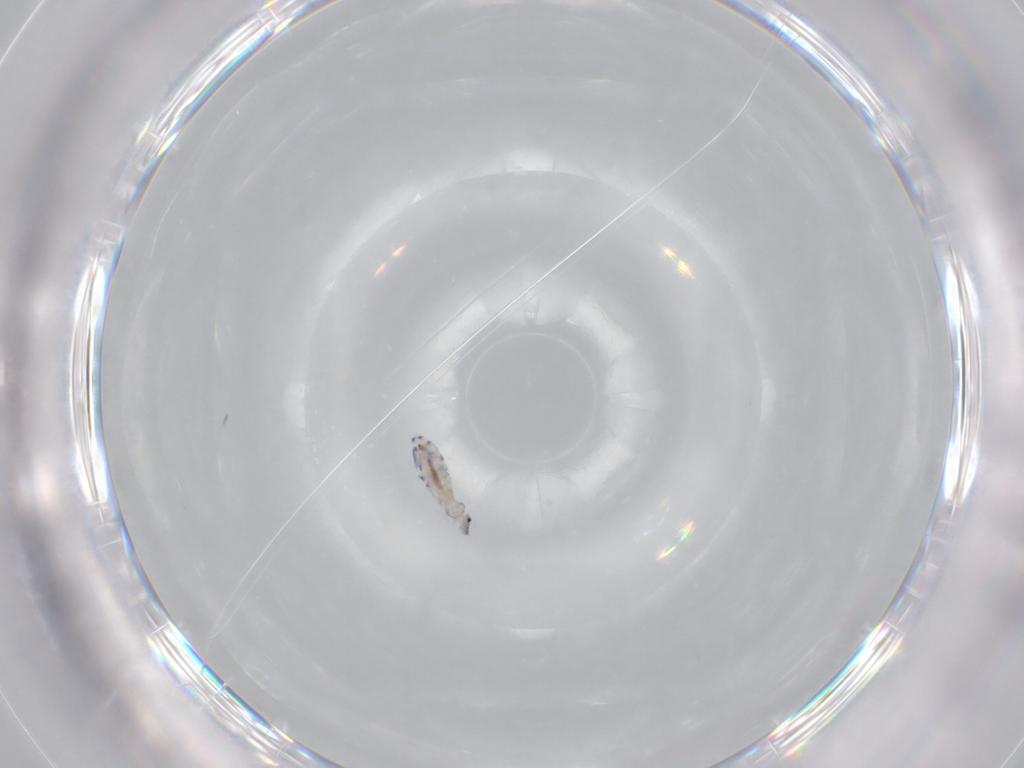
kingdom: Animalia
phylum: Arthropoda
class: Collembola
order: Entomobryomorpha
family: Entomobryidae
